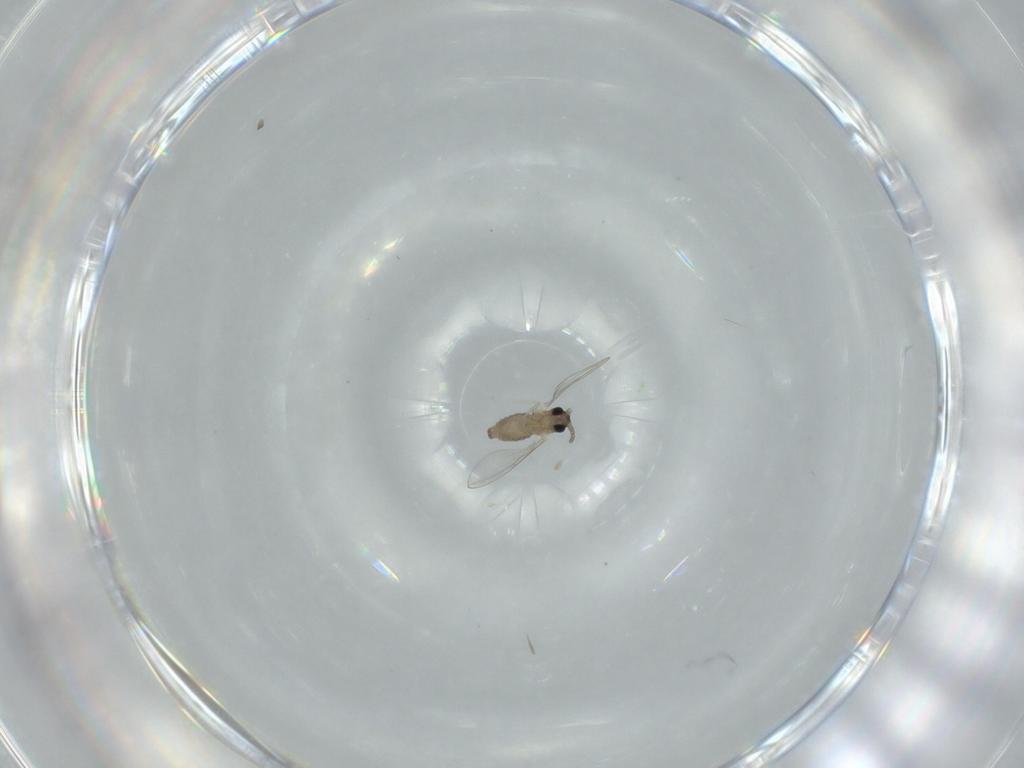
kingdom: Animalia
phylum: Arthropoda
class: Insecta
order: Diptera
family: Cecidomyiidae
